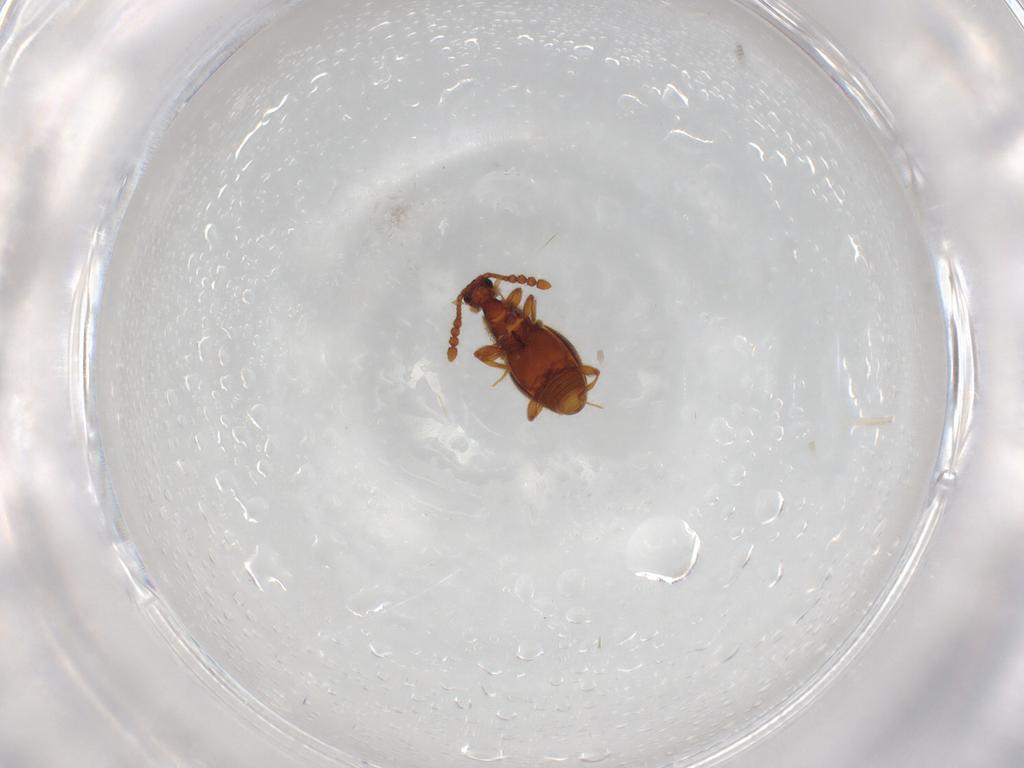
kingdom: Animalia
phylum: Arthropoda
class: Insecta
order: Coleoptera
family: Staphylinidae
